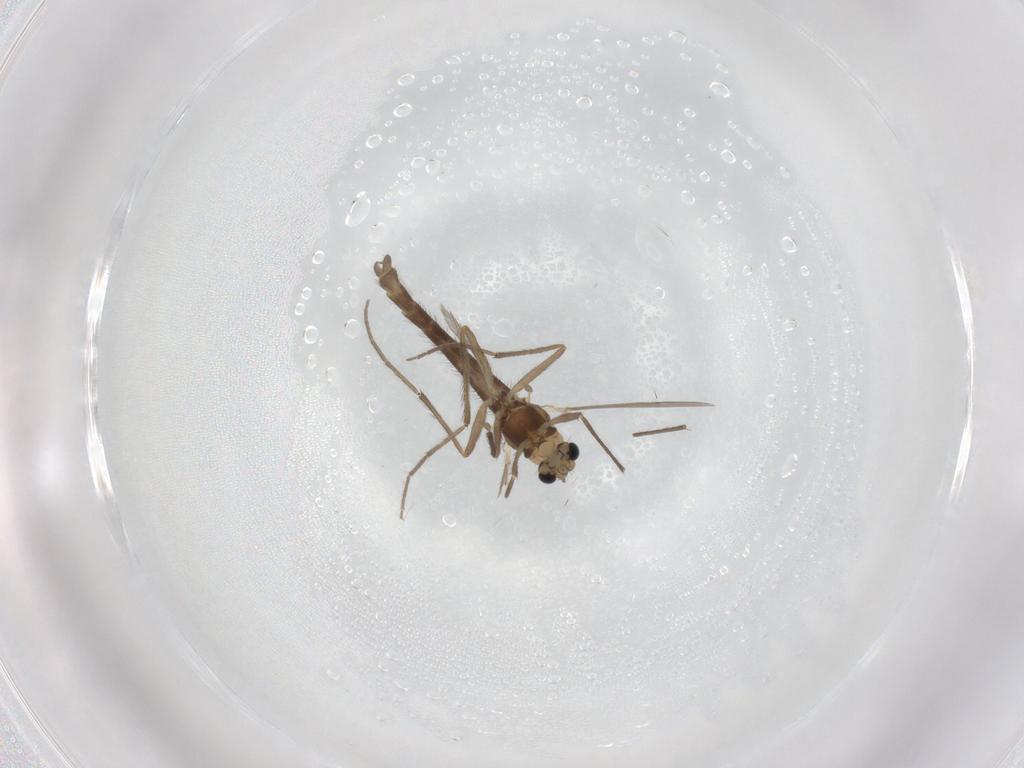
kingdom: Animalia
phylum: Arthropoda
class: Insecta
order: Diptera
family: Chironomidae
